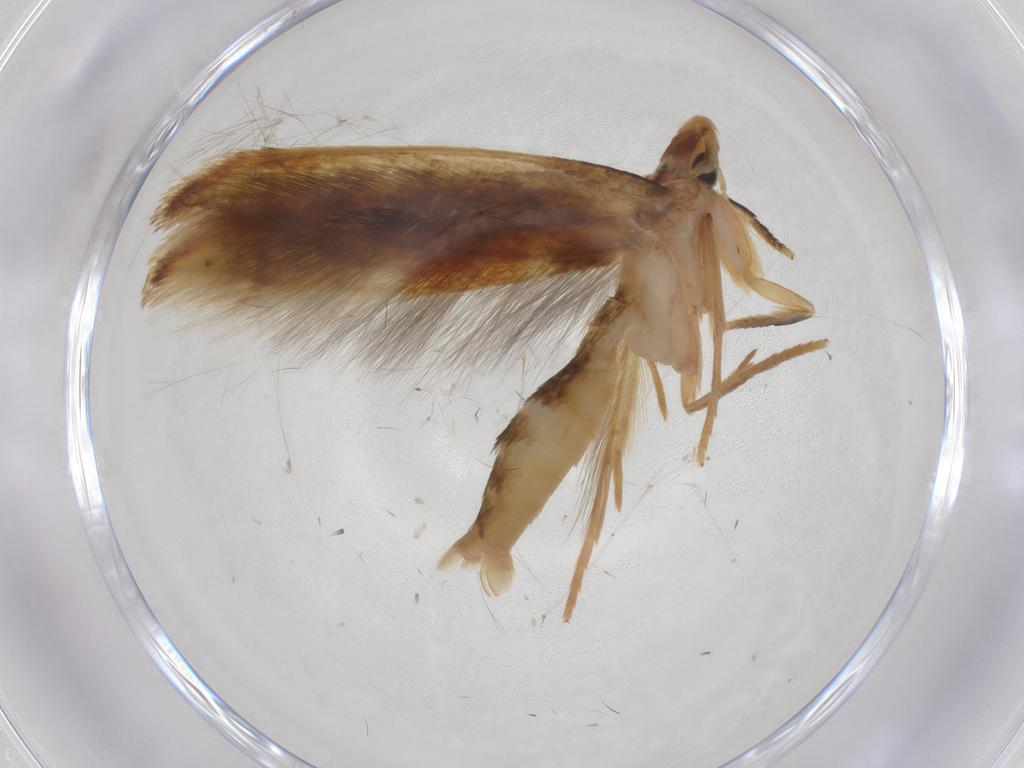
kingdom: Animalia
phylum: Arthropoda
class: Insecta
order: Lepidoptera
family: Tineidae
